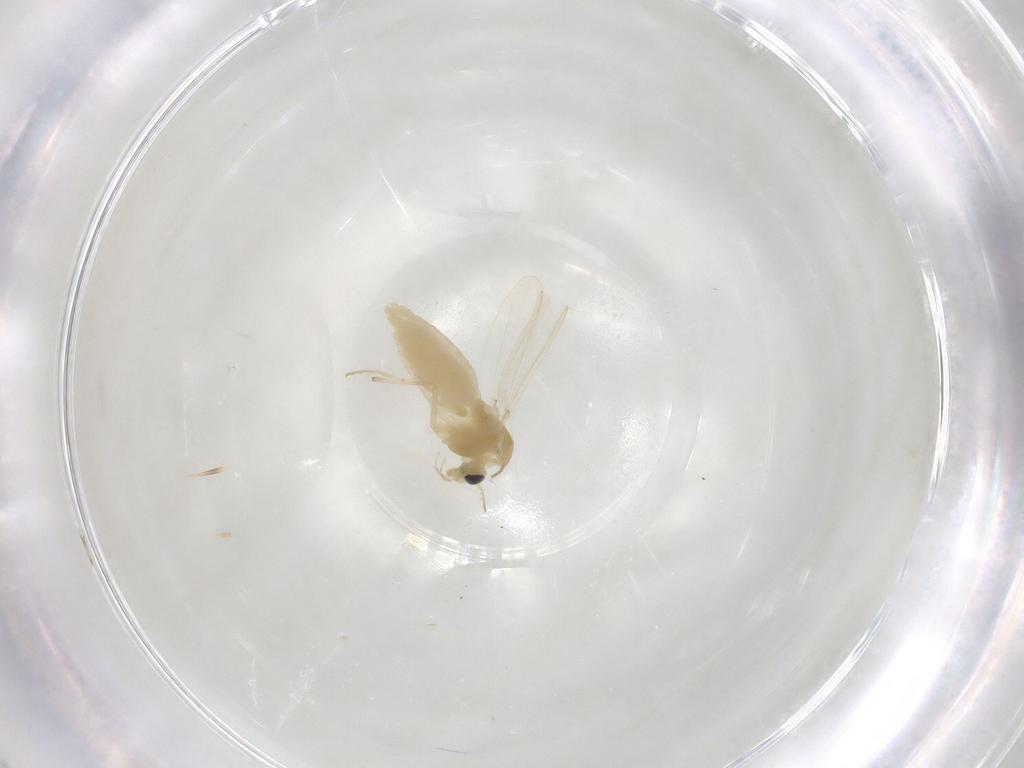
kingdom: Animalia
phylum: Arthropoda
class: Insecta
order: Diptera
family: Chironomidae
